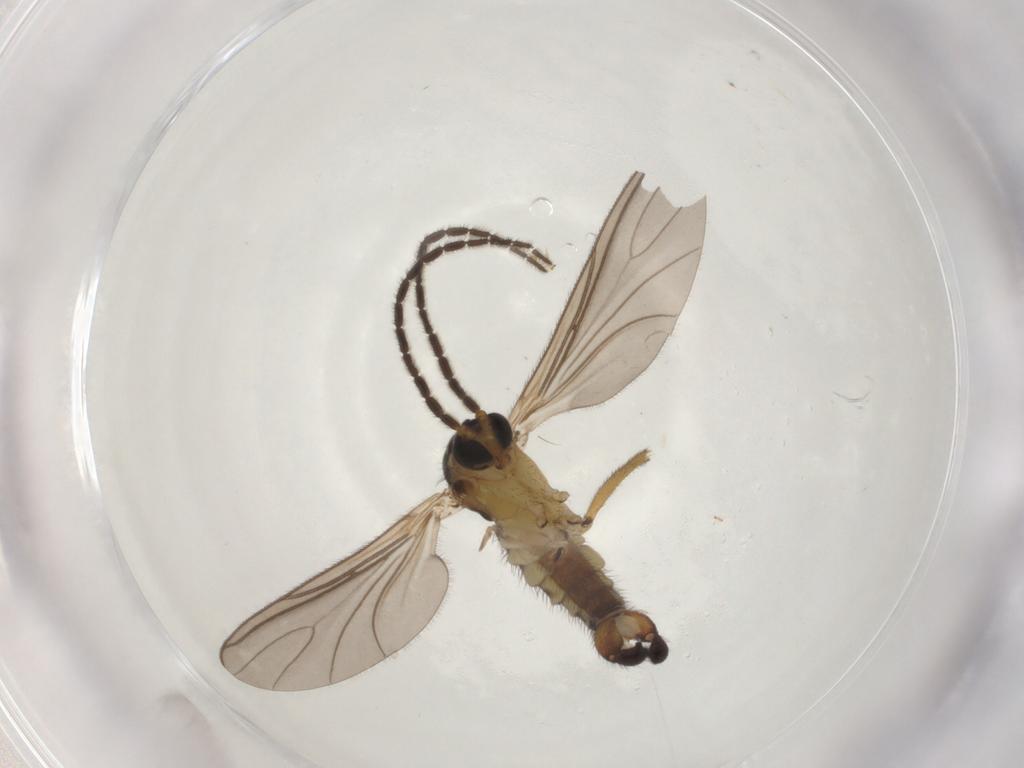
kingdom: Animalia
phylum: Arthropoda
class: Insecta
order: Diptera
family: Sciaridae
